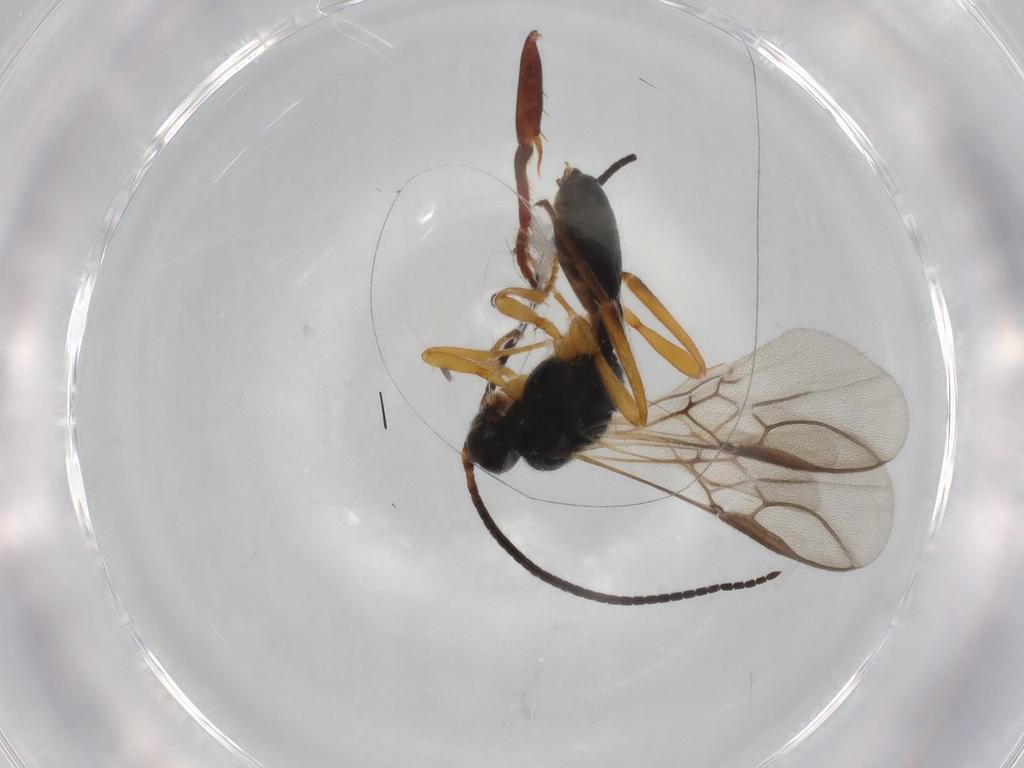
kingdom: Animalia
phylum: Arthropoda
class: Insecta
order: Hymenoptera
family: Braconidae
